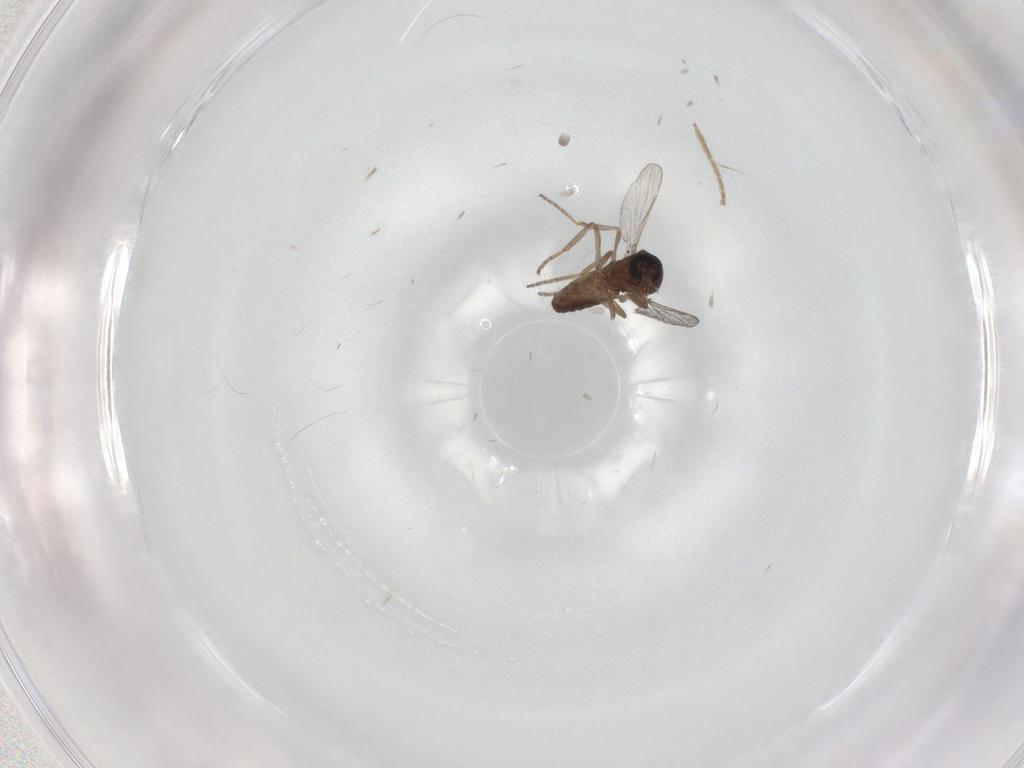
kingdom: Animalia
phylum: Arthropoda
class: Insecta
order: Diptera
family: Ceratopogonidae
